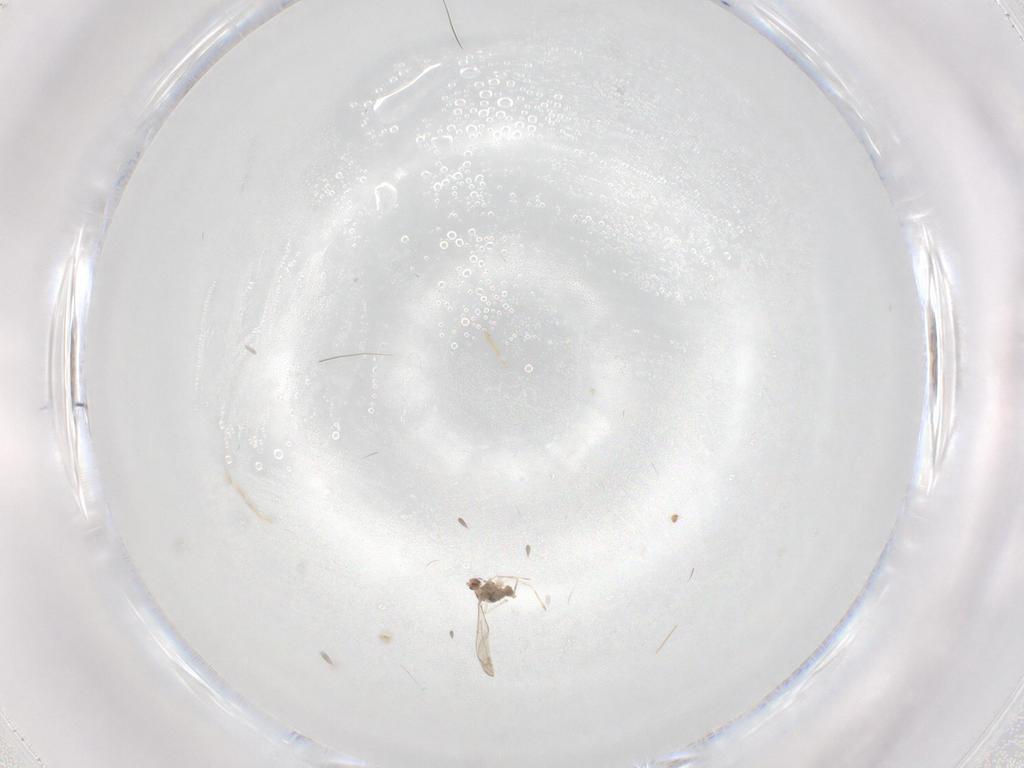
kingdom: Animalia
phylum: Arthropoda
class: Insecta
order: Diptera
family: Cecidomyiidae
